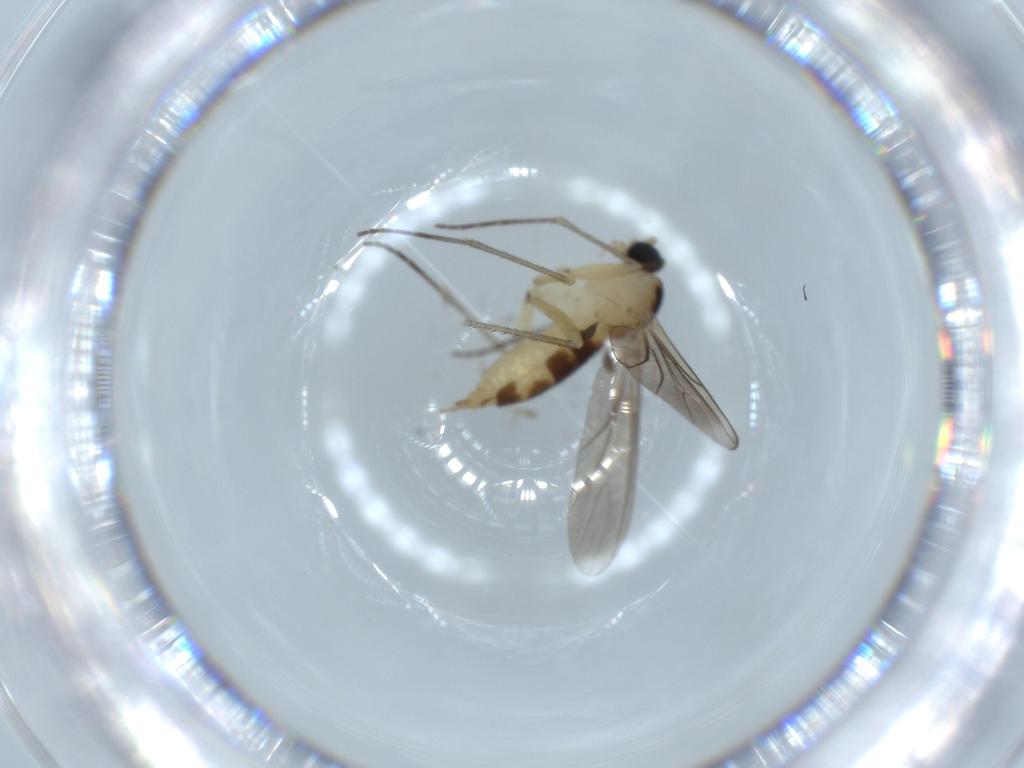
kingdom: Animalia
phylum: Arthropoda
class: Insecta
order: Diptera
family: Sciaridae
